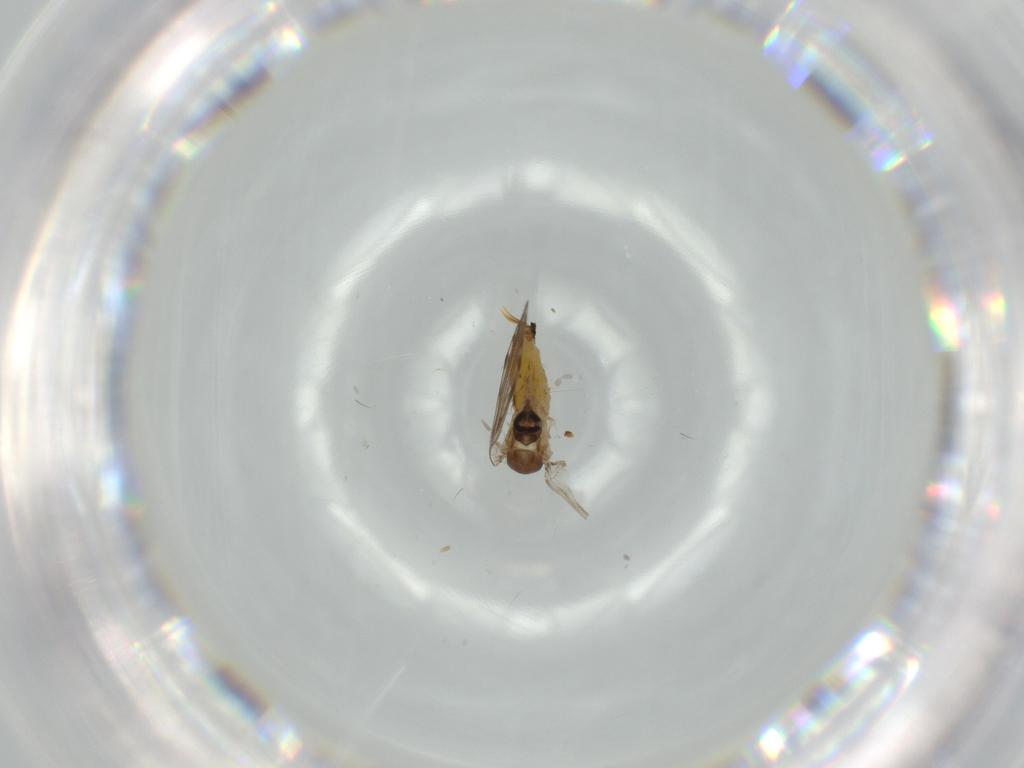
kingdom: Animalia
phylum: Arthropoda
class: Insecta
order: Diptera
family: Psychodidae
